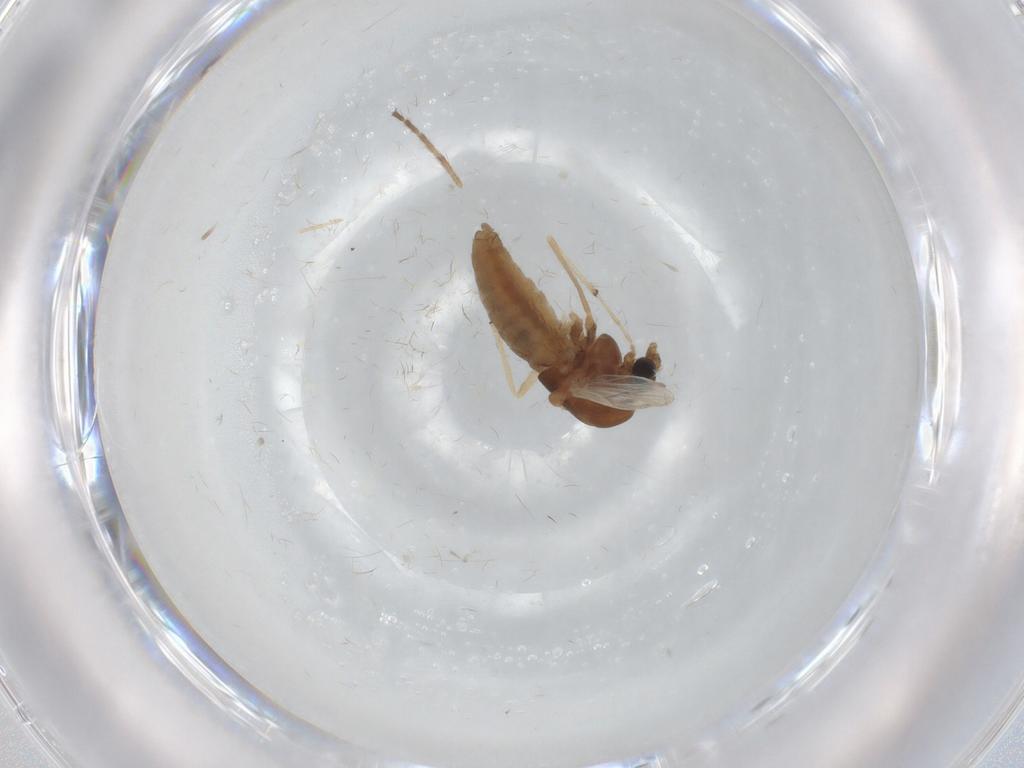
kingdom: Animalia
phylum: Arthropoda
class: Insecta
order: Diptera
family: Chironomidae
